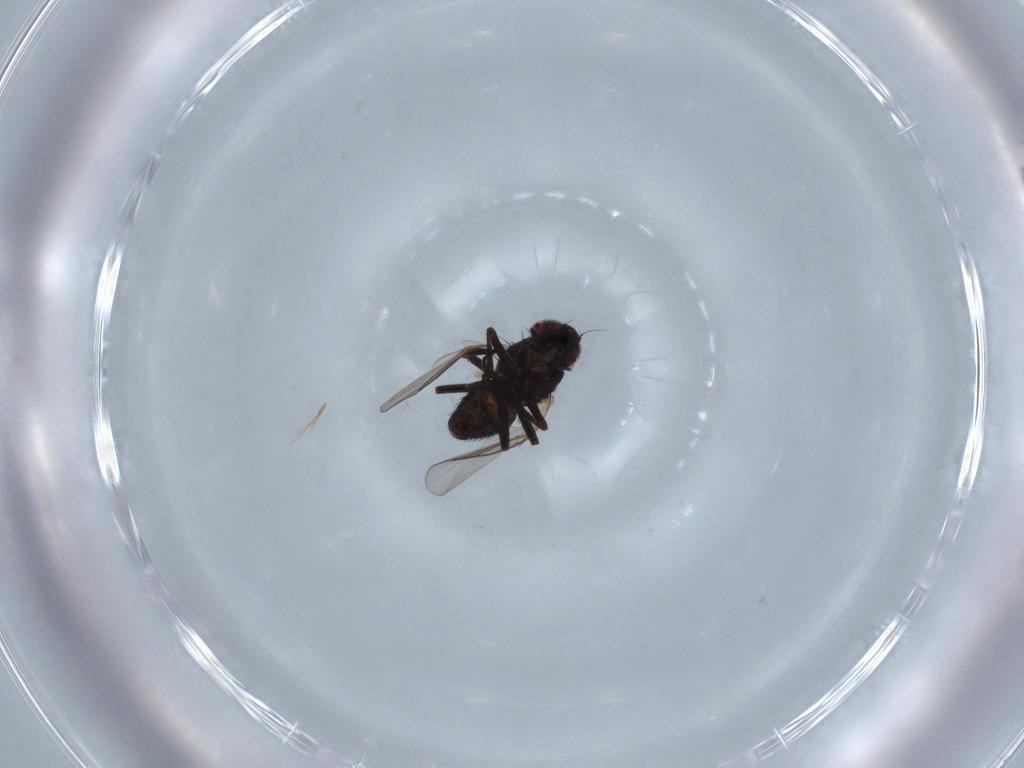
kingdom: Animalia
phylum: Arthropoda
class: Insecta
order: Diptera
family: Agromyzidae
